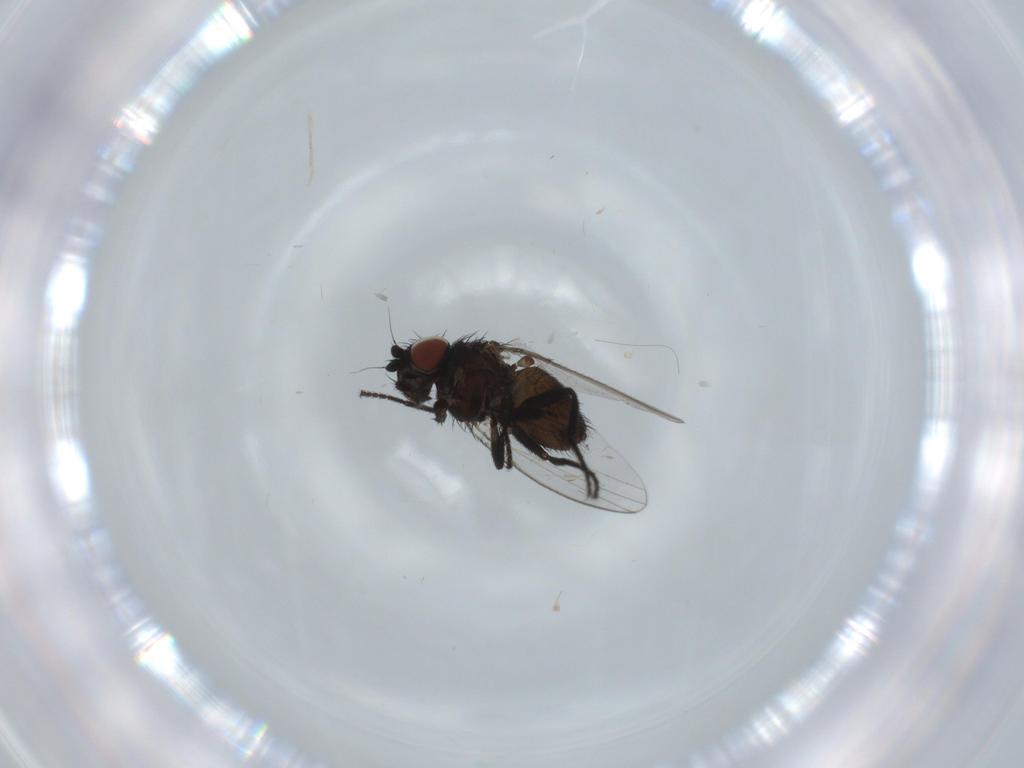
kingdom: Animalia
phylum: Arthropoda
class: Insecta
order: Diptera
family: Milichiidae
